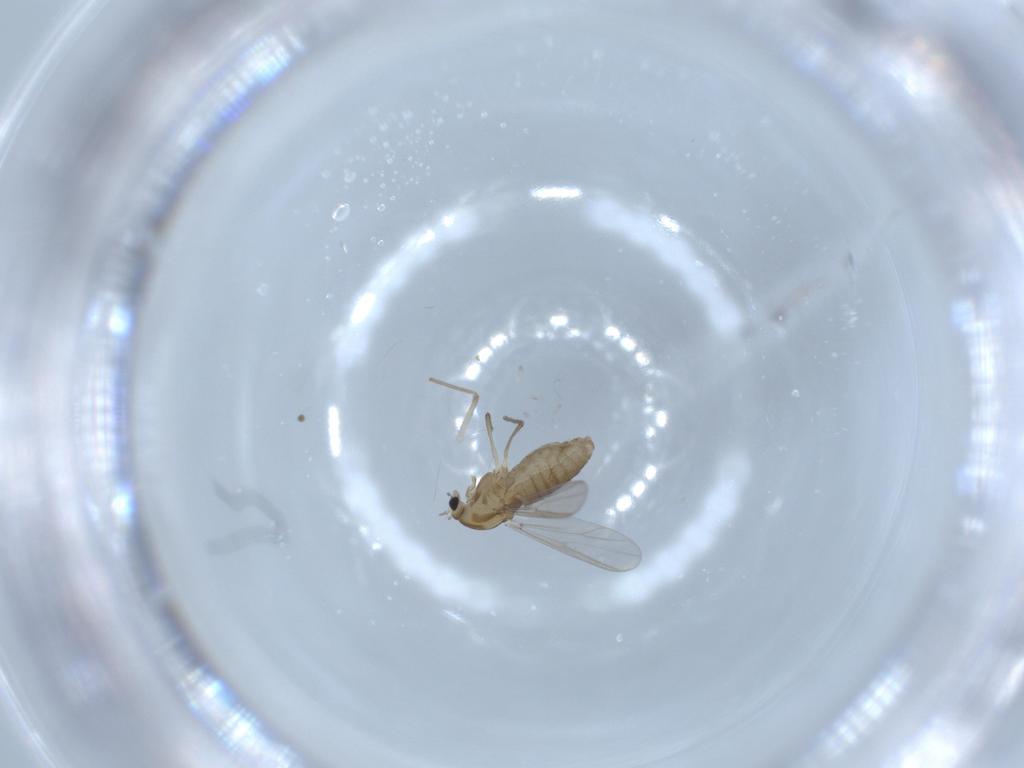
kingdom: Animalia
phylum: Arthropoda
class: Insecta
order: Diptera
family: Chironomidae
